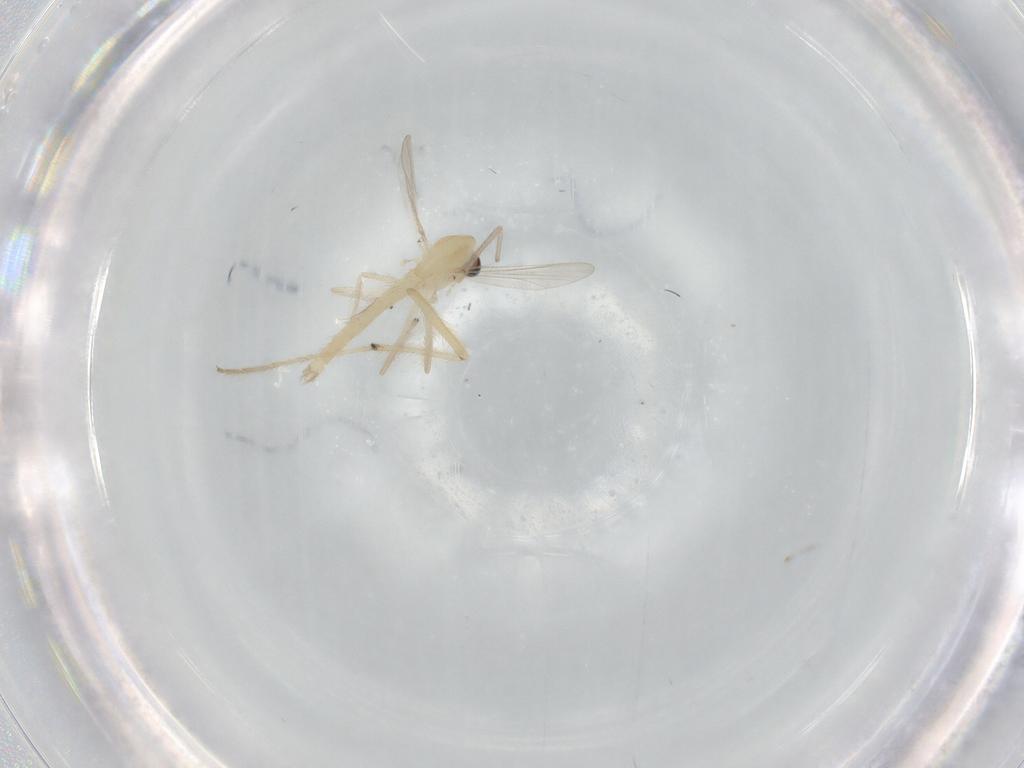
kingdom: Animalia
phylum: Arthropoda
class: Insecta
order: Diptera
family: Chironomidae
